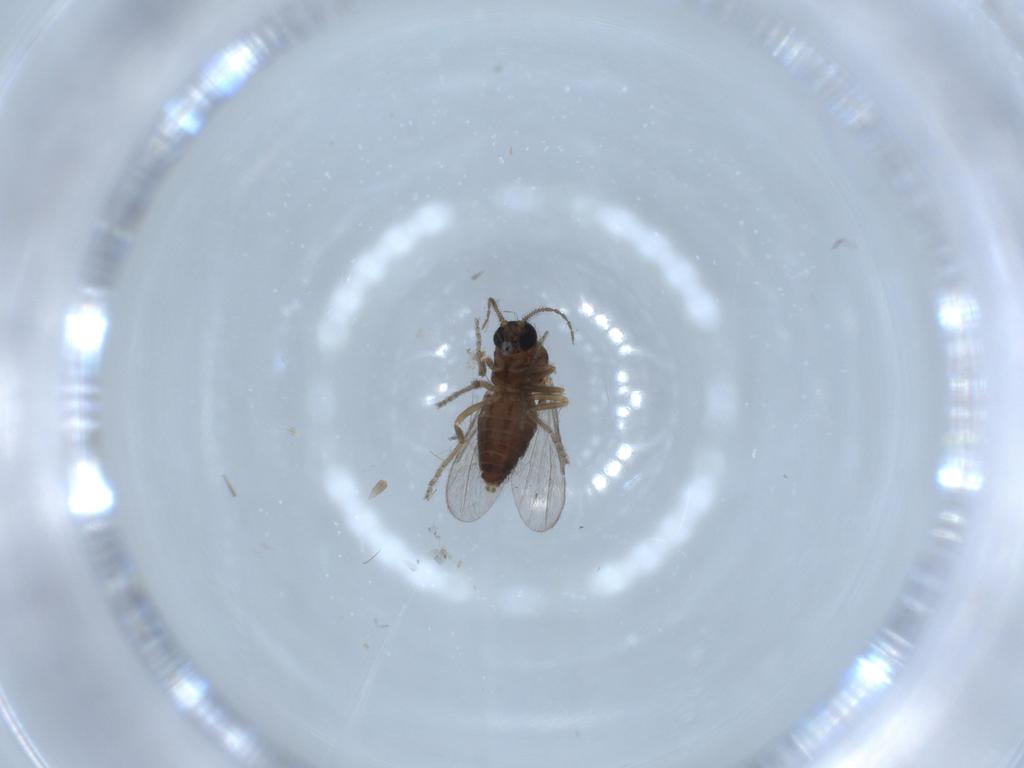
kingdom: Animalia
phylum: Arthropoda
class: Insecta
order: Diptera
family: Ceratopogonidae
